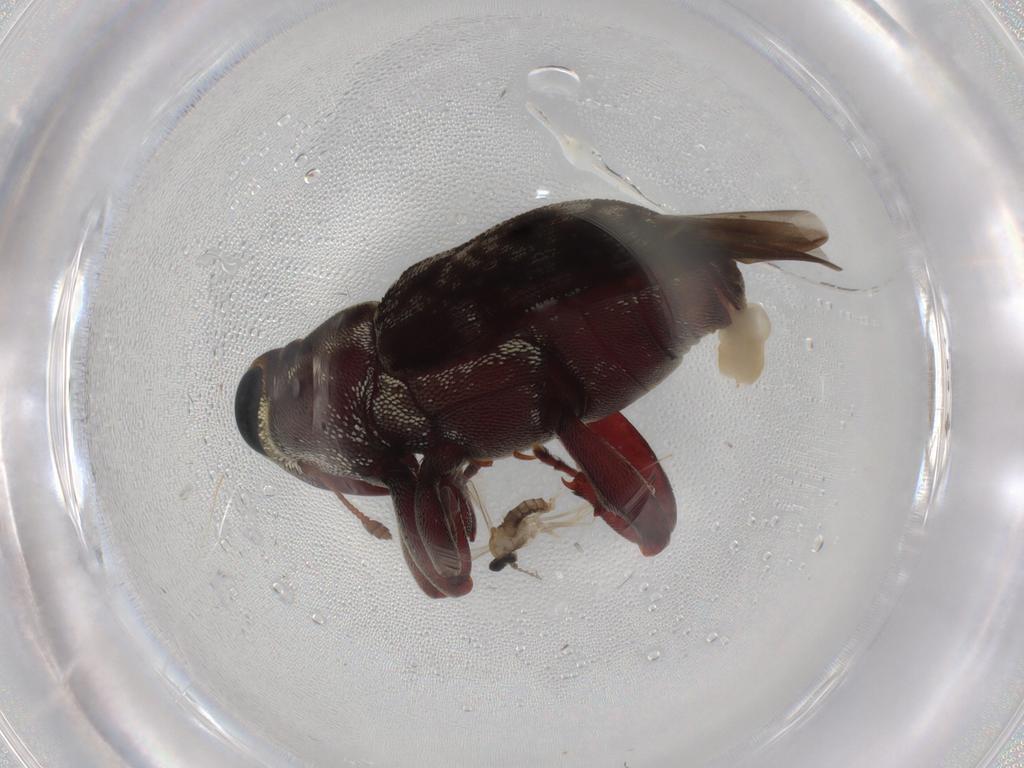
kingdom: Animalia
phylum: Arthropoda
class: Insecta
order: Coleoptera
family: Curculionidae
